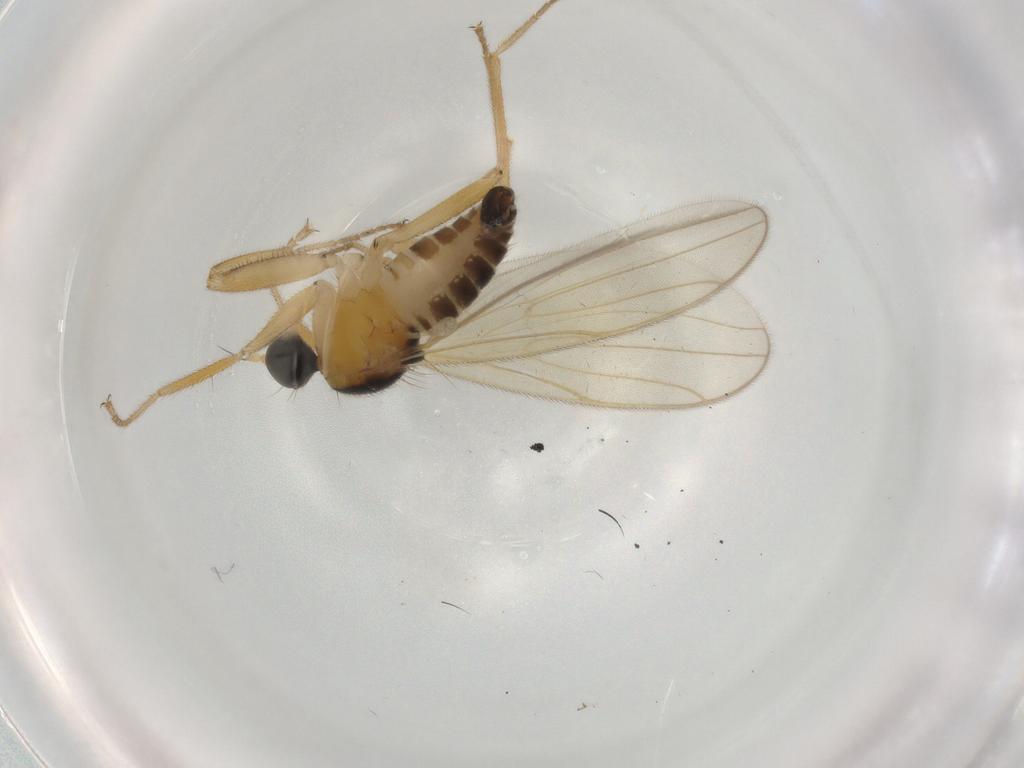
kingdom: Animalia
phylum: Arthropoda
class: Insecta
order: Diptera
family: Hybotidae
